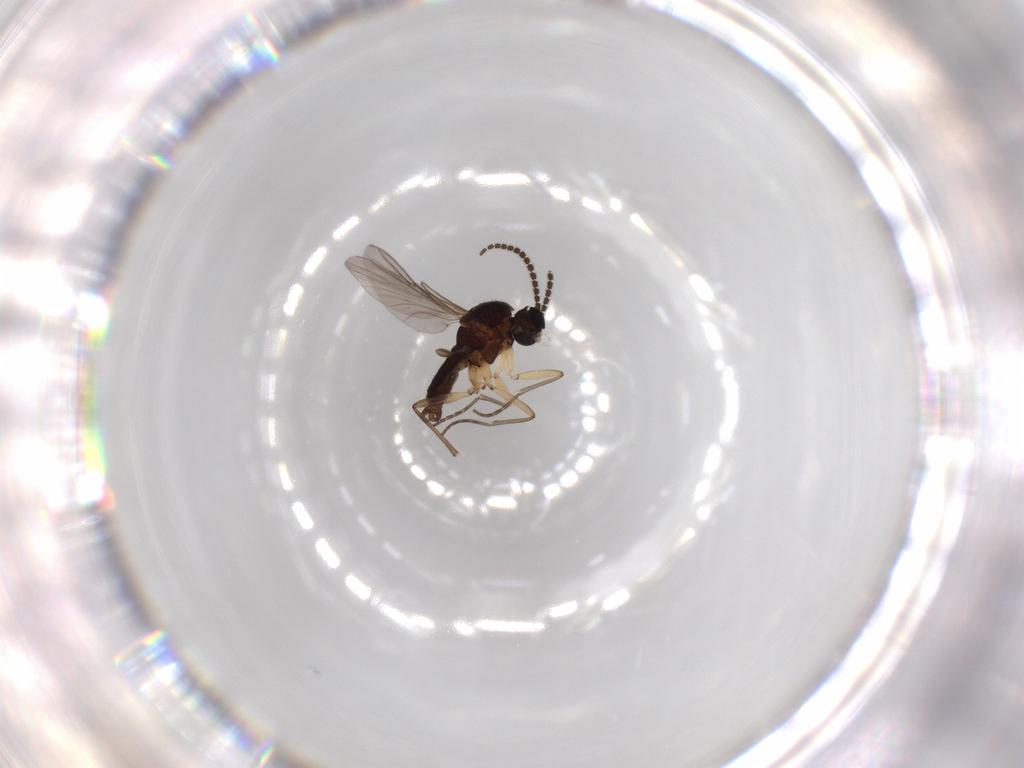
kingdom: Animalia
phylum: Arthropoda
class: Insecta
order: Diptera
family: Sciaridae
